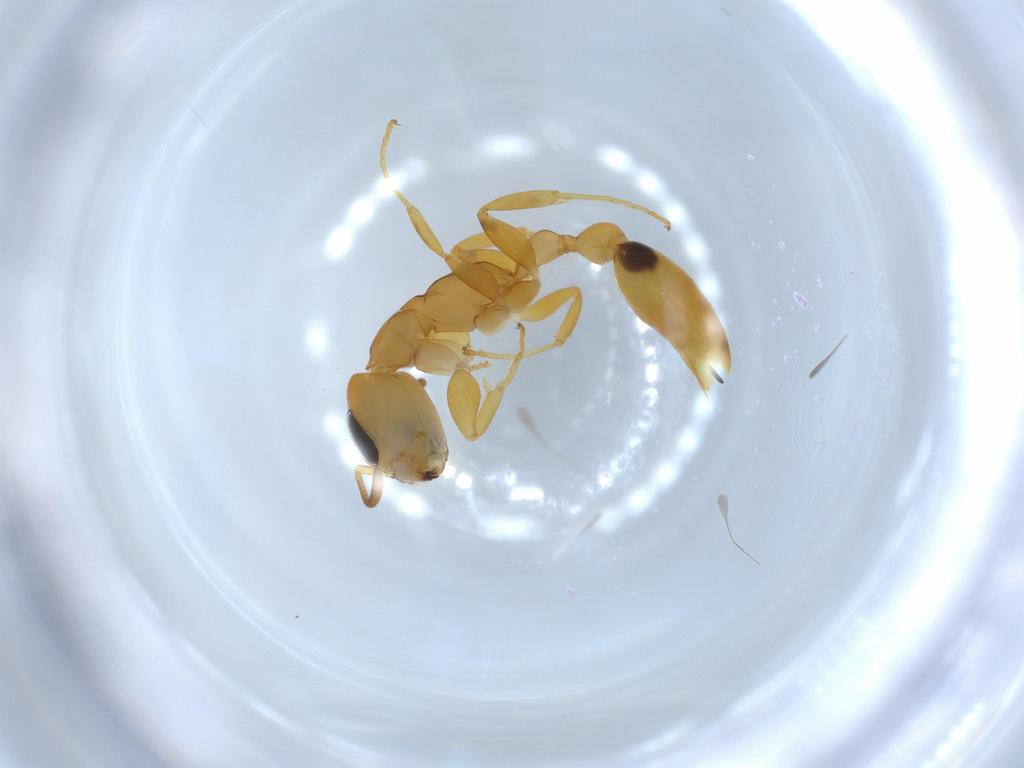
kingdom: Animalia
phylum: Arthropoda
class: Insecta
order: Hymenoptera
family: Formicidae
